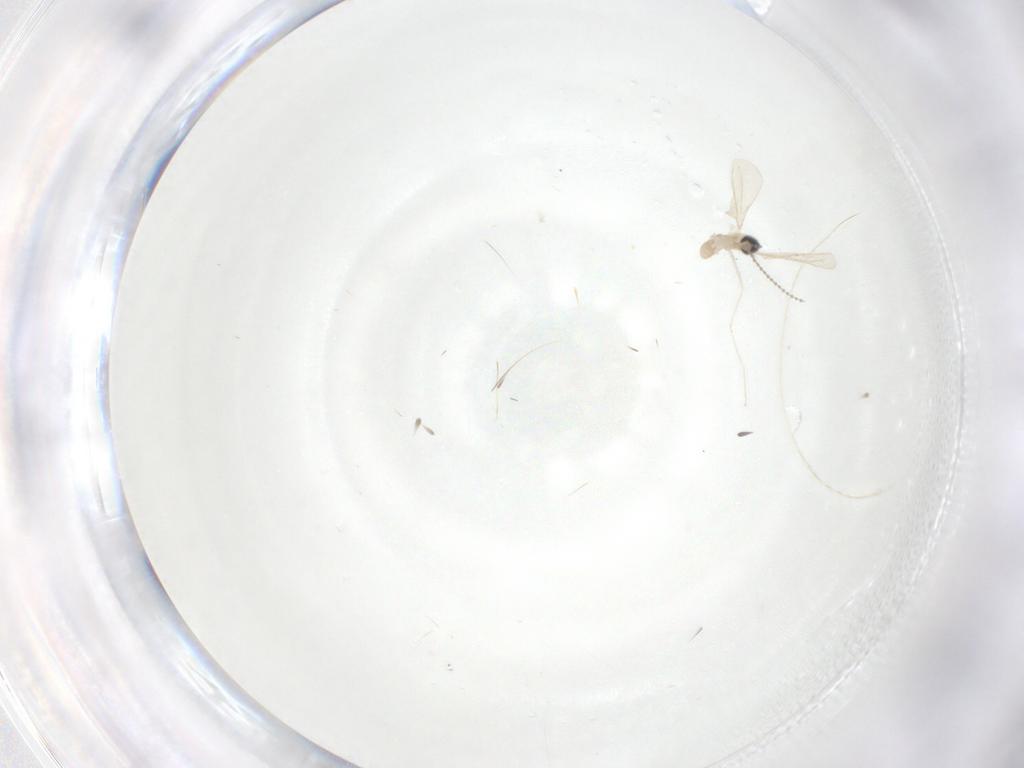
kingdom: Animalia
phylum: Arthropoda
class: Insecta
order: Diptera
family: Cecidomyiidae
